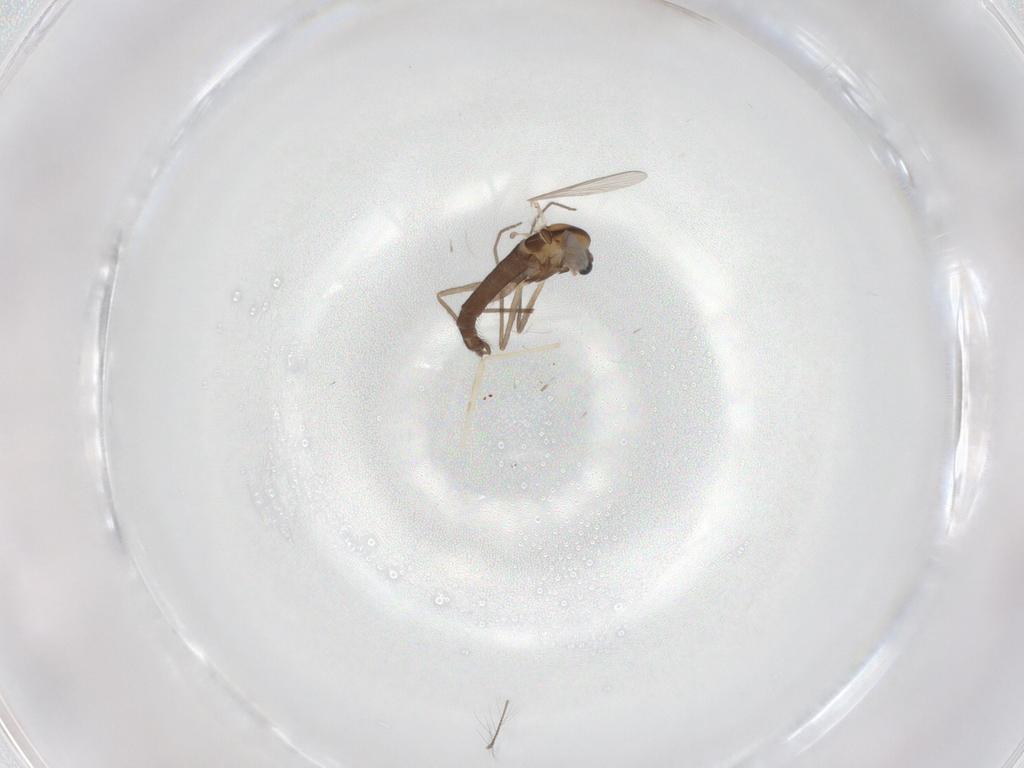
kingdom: Animalia
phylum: Arthropoda
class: Insecta
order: Diptera
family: Chironomidae
